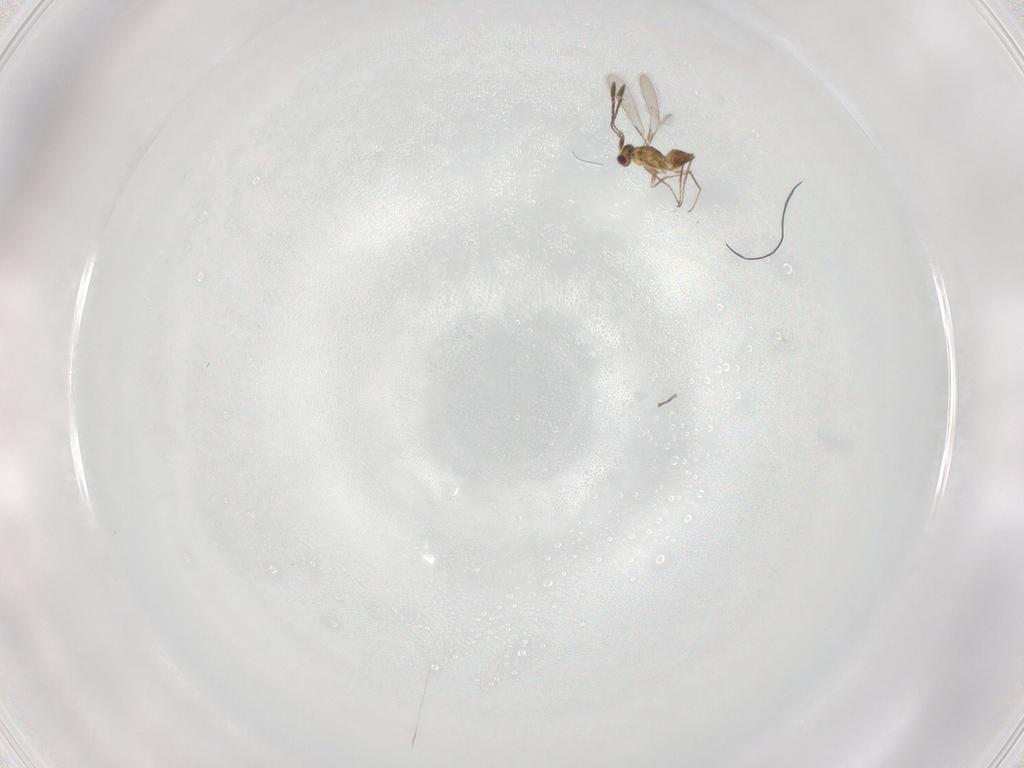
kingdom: Animalia
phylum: Arthropoda
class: Insecta
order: Hymenoptera
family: Mymaridae
